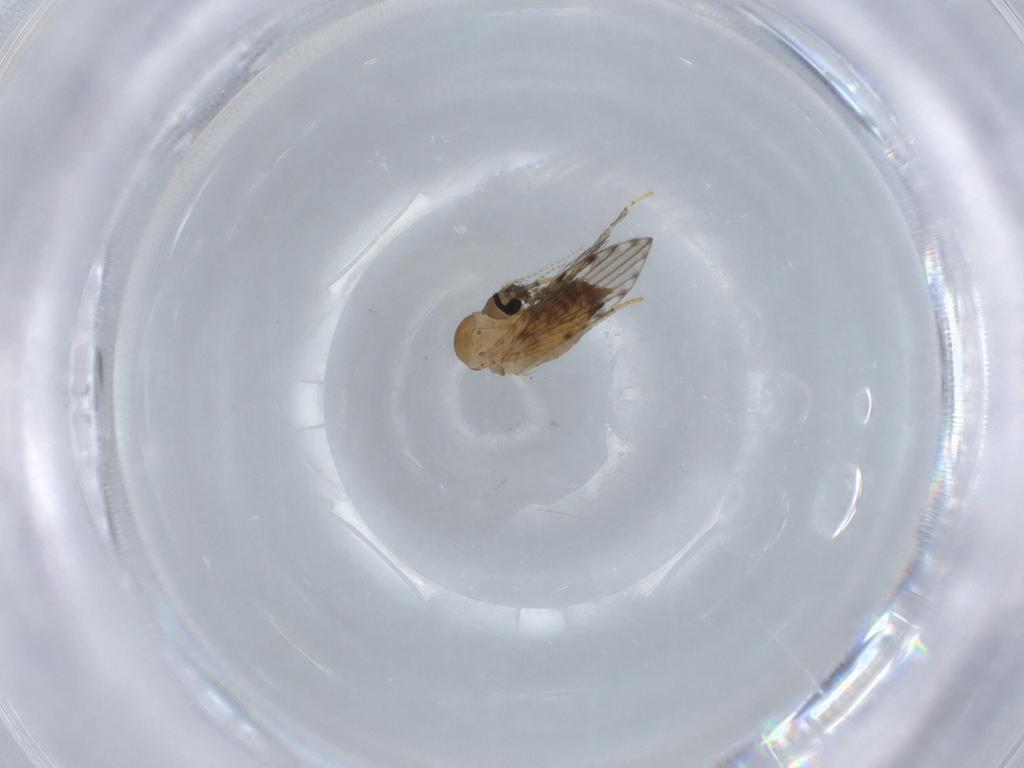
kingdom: Animalia
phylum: Arthropoda
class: Insecta
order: Diptera
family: Psychodidae
